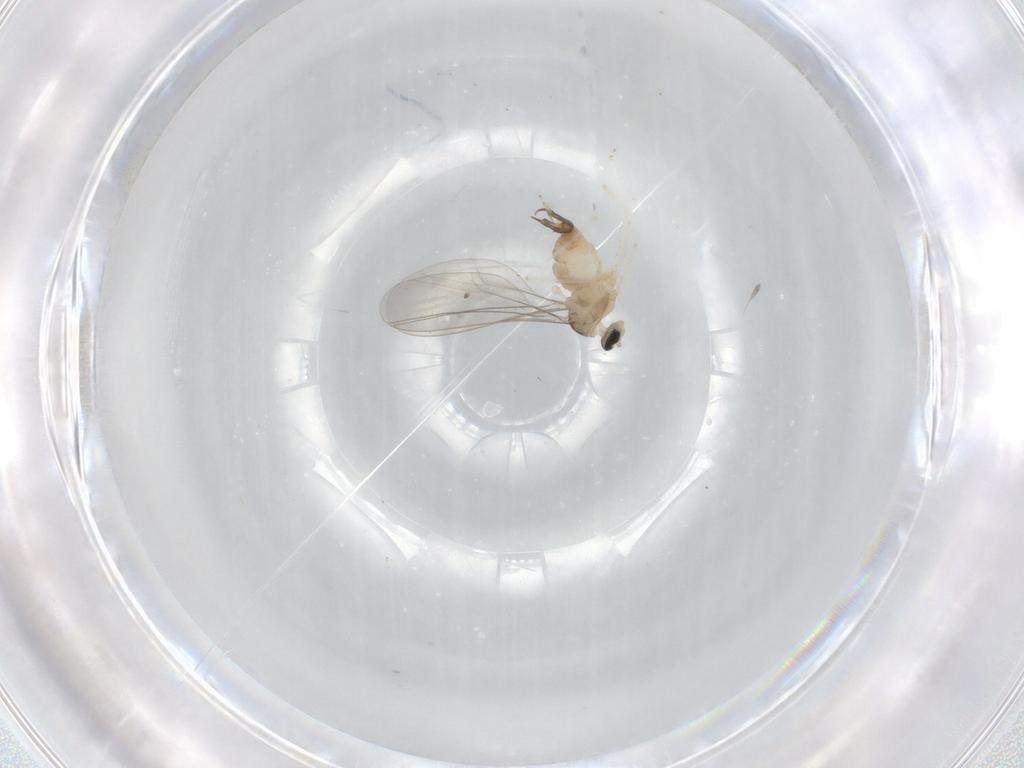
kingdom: Animalia
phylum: Arthropoda
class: Insecta
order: Diptera
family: Cecidomyiidae
